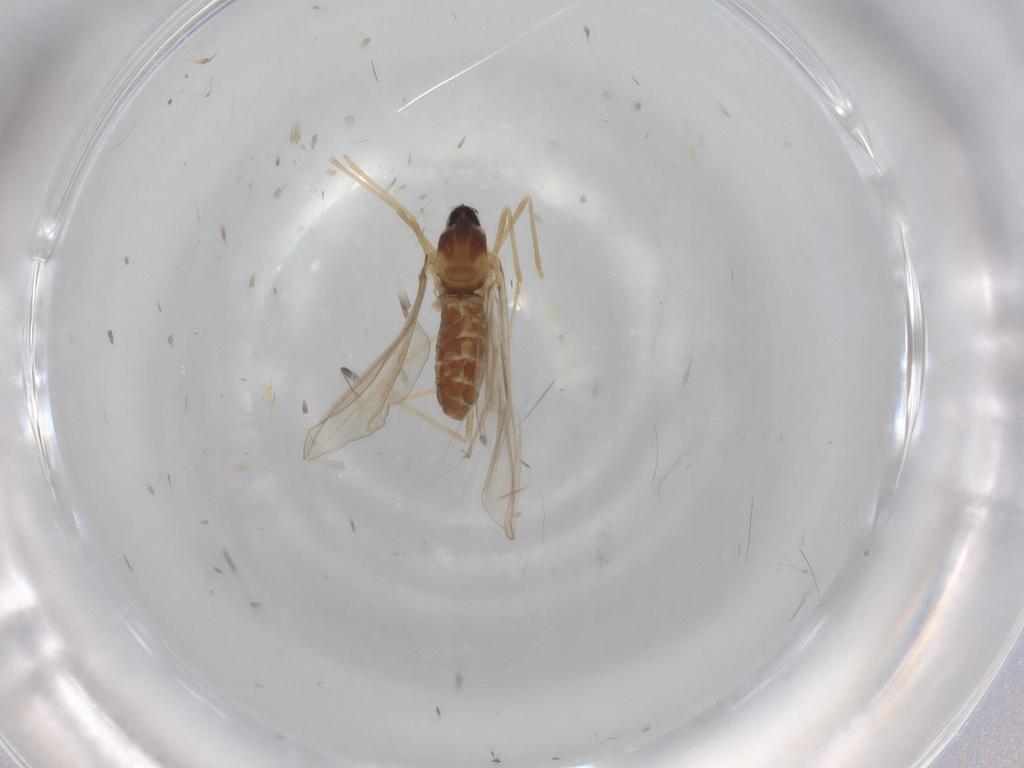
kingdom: Animalia
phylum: Arthropoda
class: Insecta
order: Diptera
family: Cecidomyiidae
